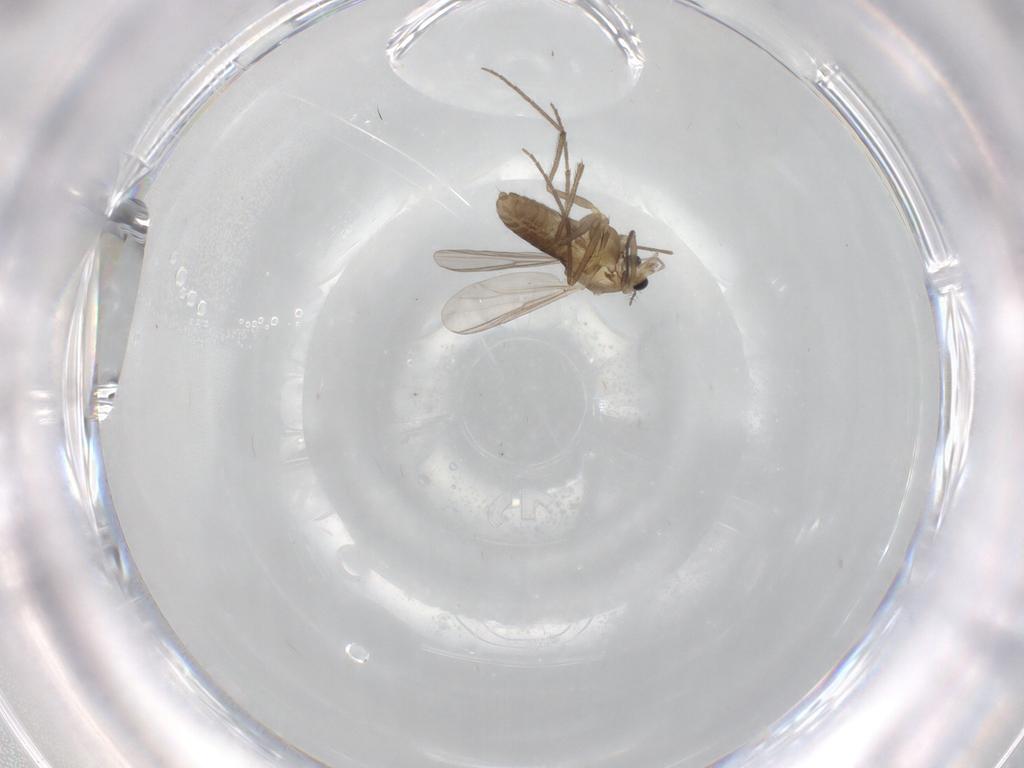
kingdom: Animalia
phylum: Arthropoda
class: Insecta
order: Diptera
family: Chironomidae
